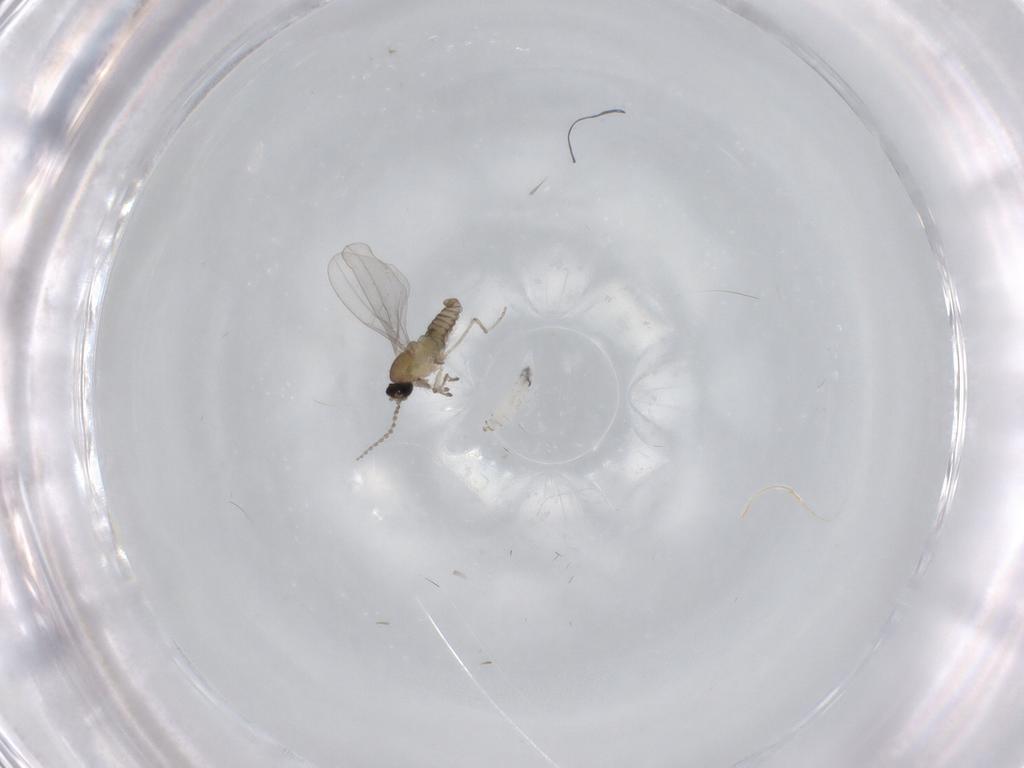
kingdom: Animalia
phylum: Arthropoda
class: Insecta
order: Diptera
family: Cecidomyiidae
